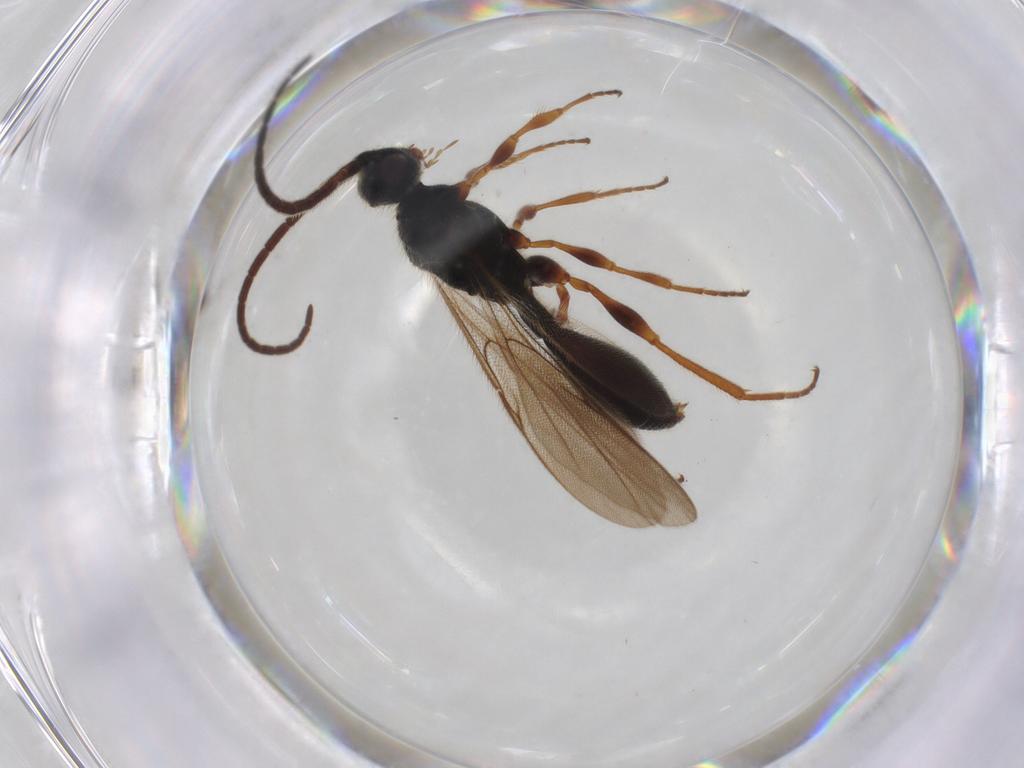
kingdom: Animalia
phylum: Arthropoda
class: Insecta
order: Hymenoptera
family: Diapriidae
